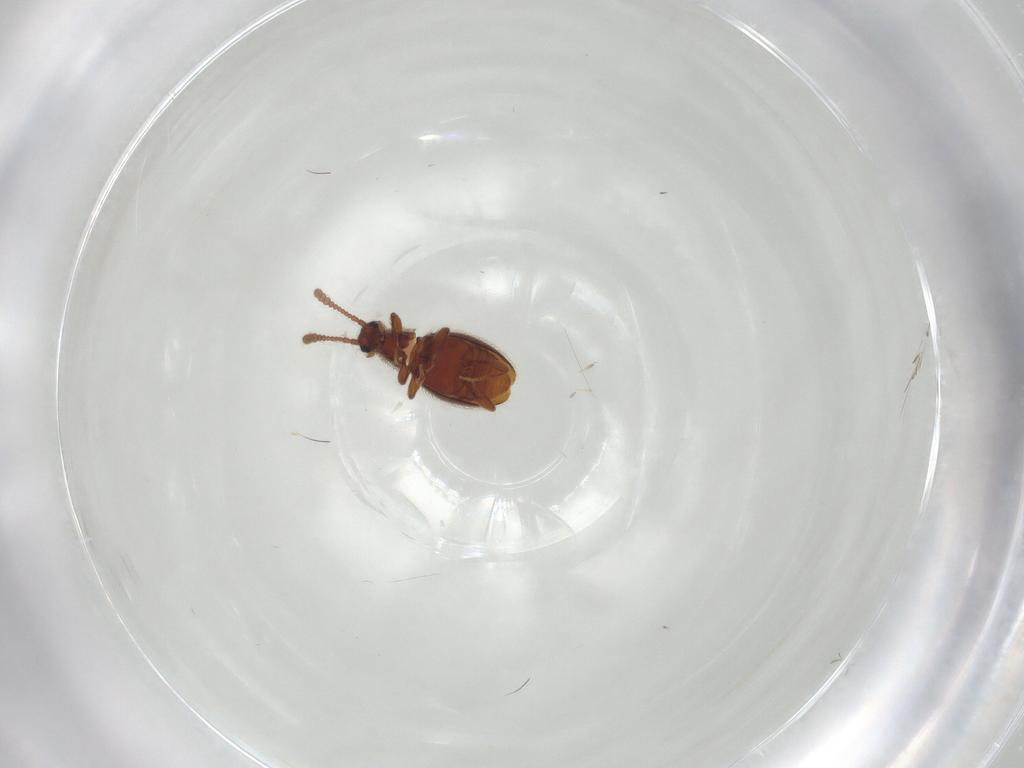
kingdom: Animalia
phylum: Arthropoda
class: Insecta
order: Coleoptera
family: Staphylinidae
